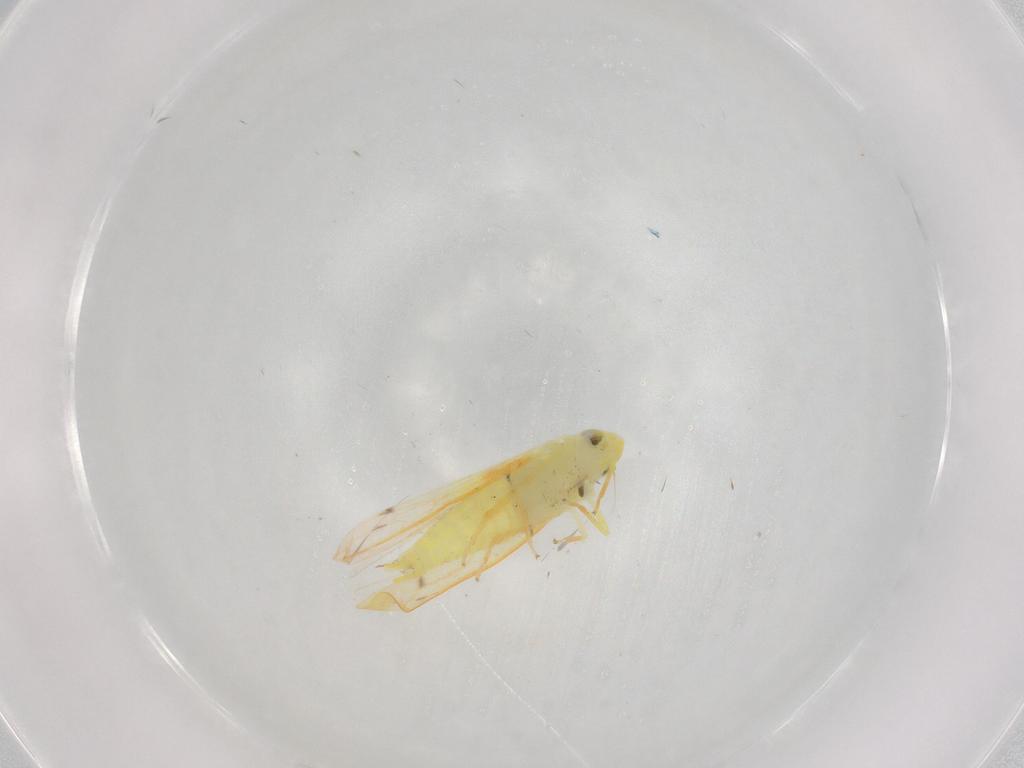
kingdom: Animalia
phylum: Arthropoda
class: Insecta
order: Hemiptera
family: Cicadellidae
